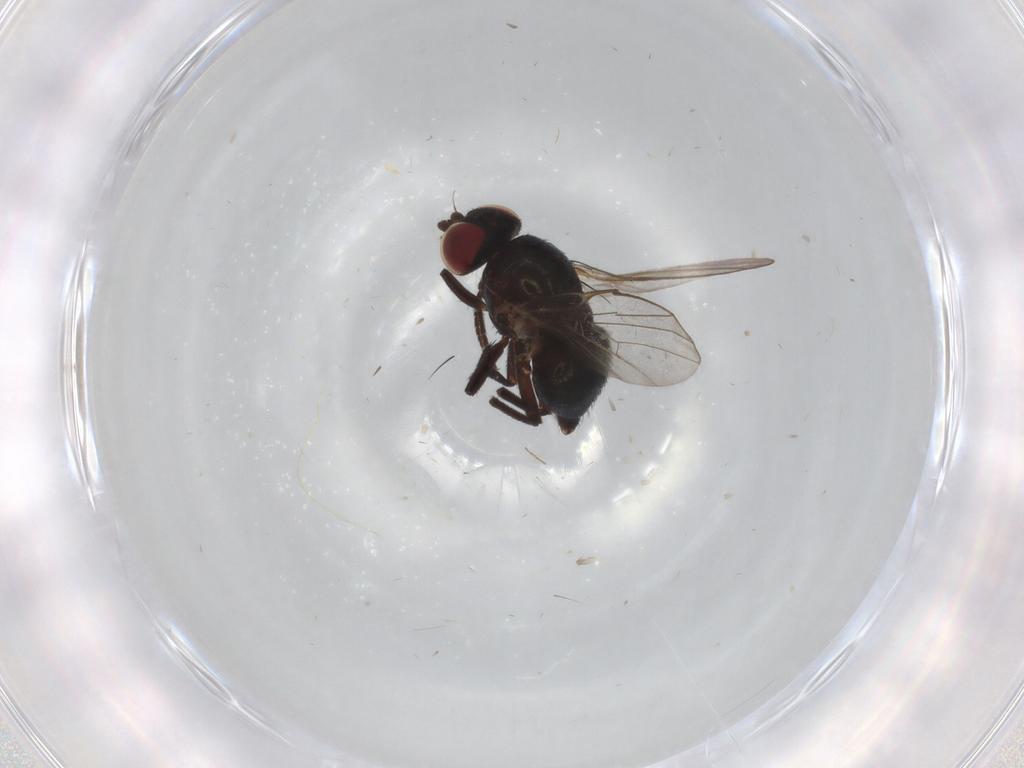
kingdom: Animalia
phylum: Arthropoda
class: Insecta
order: Diptera
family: Agromyzidae
